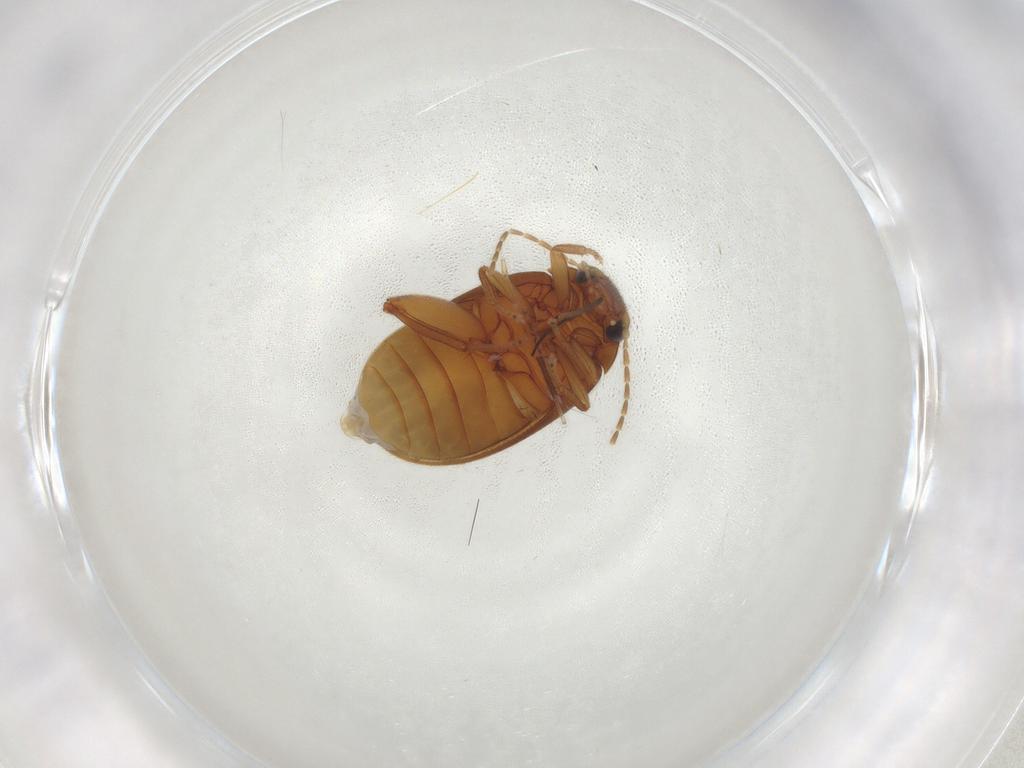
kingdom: Animalia
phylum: Arthropoda
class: Insecta
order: Coleoptera
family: Scirtidae
